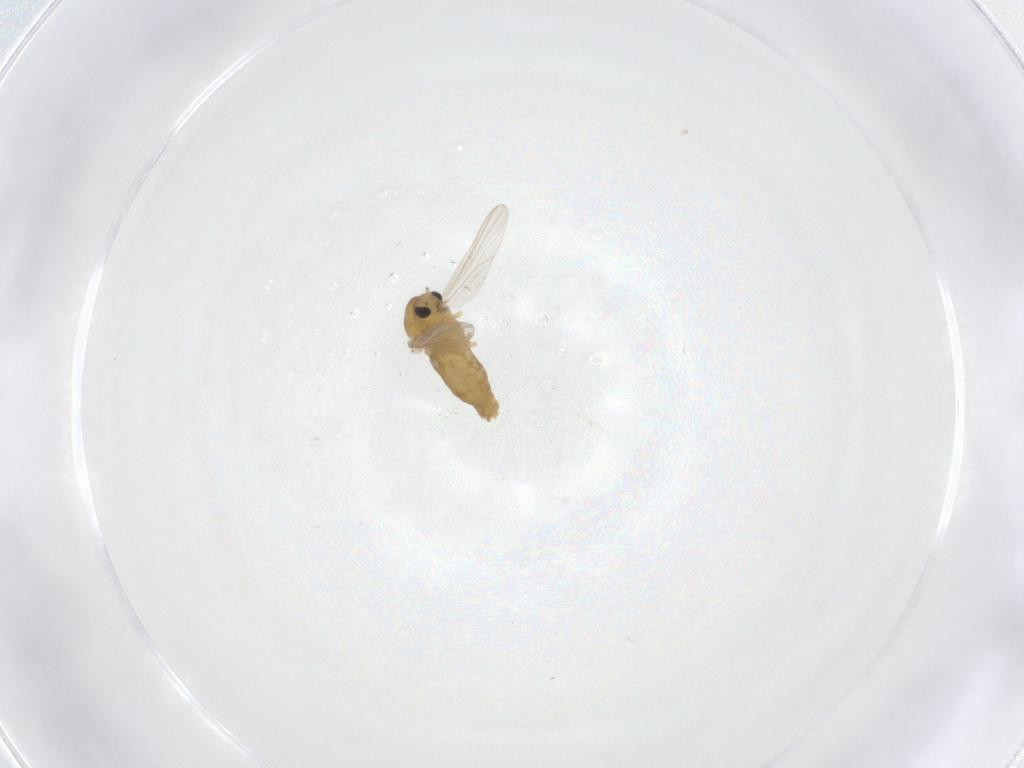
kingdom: Animalia
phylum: Arthropoda
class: Insecta
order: Diptera
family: Chironomidae
